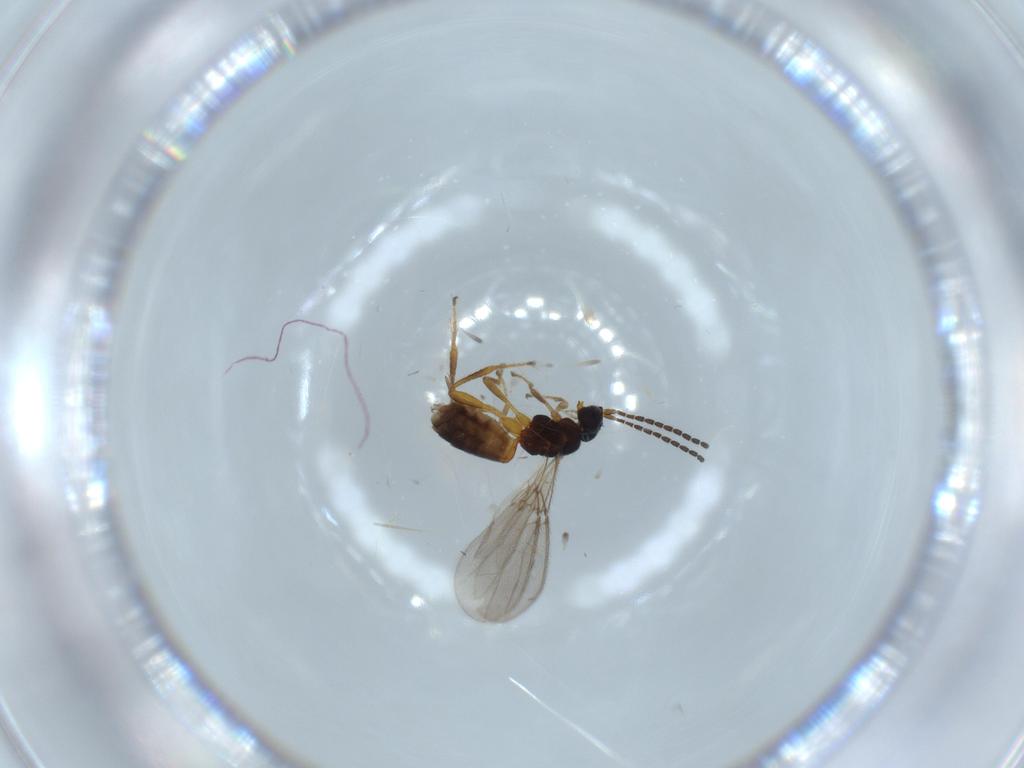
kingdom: Animalia
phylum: Arthropoda
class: Insecta
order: Hymenoptera
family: Braconidae
